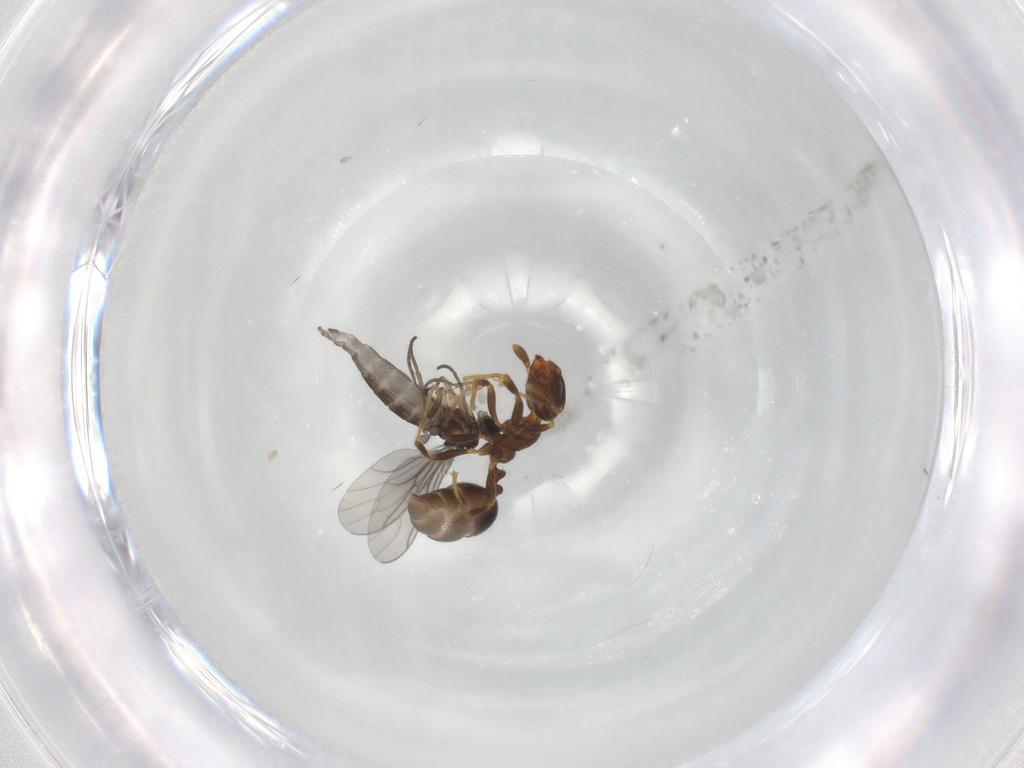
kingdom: Animalia
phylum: Arthropoda
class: Insecta
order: Diptera
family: Sciaridae
